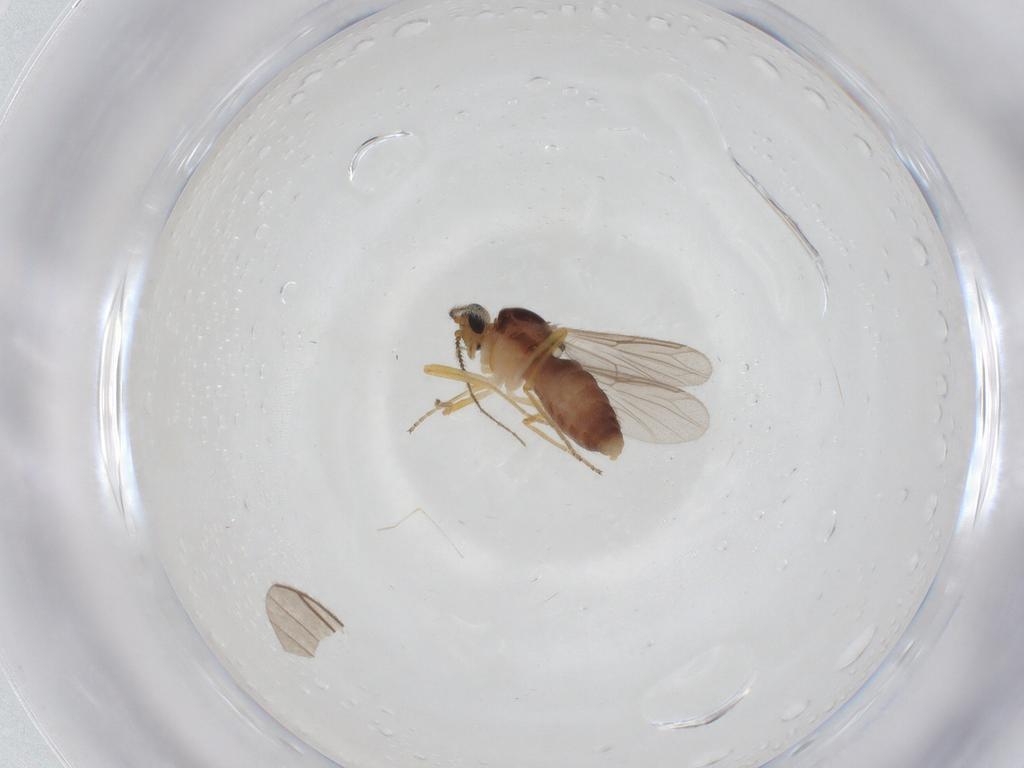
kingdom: Animalia
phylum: Arthropoda
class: Insecta
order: Diptera
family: Ceratopogonidae
